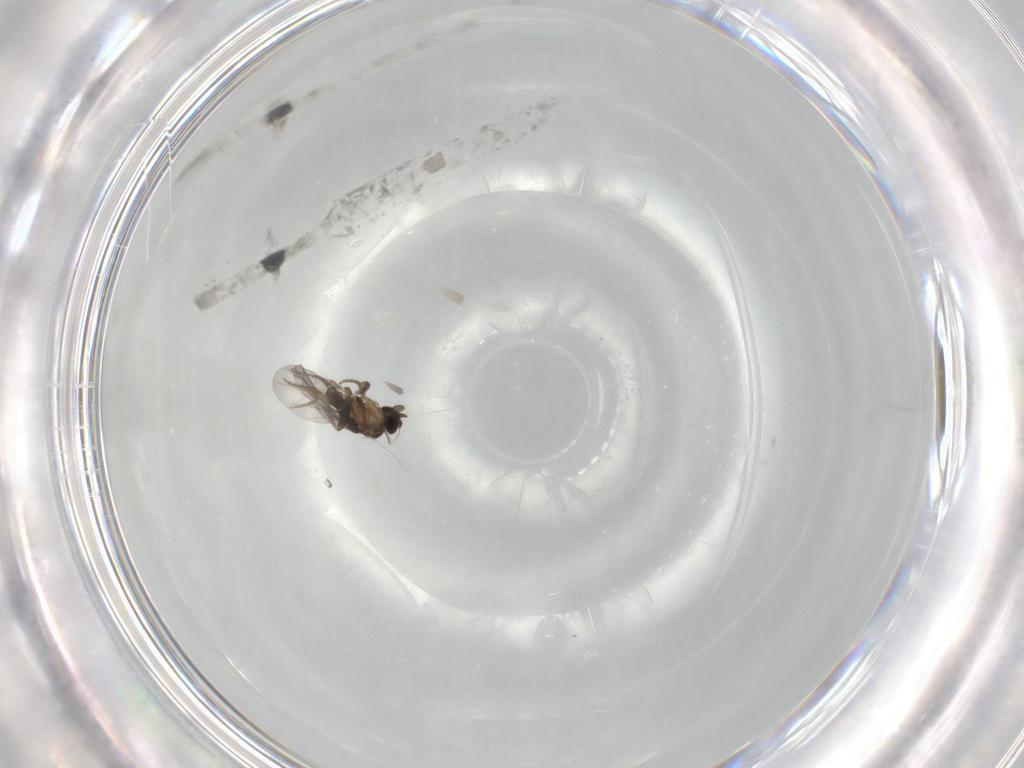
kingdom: Animalia
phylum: Arthropoda
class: Insecta
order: Diptera
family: Phoridae
